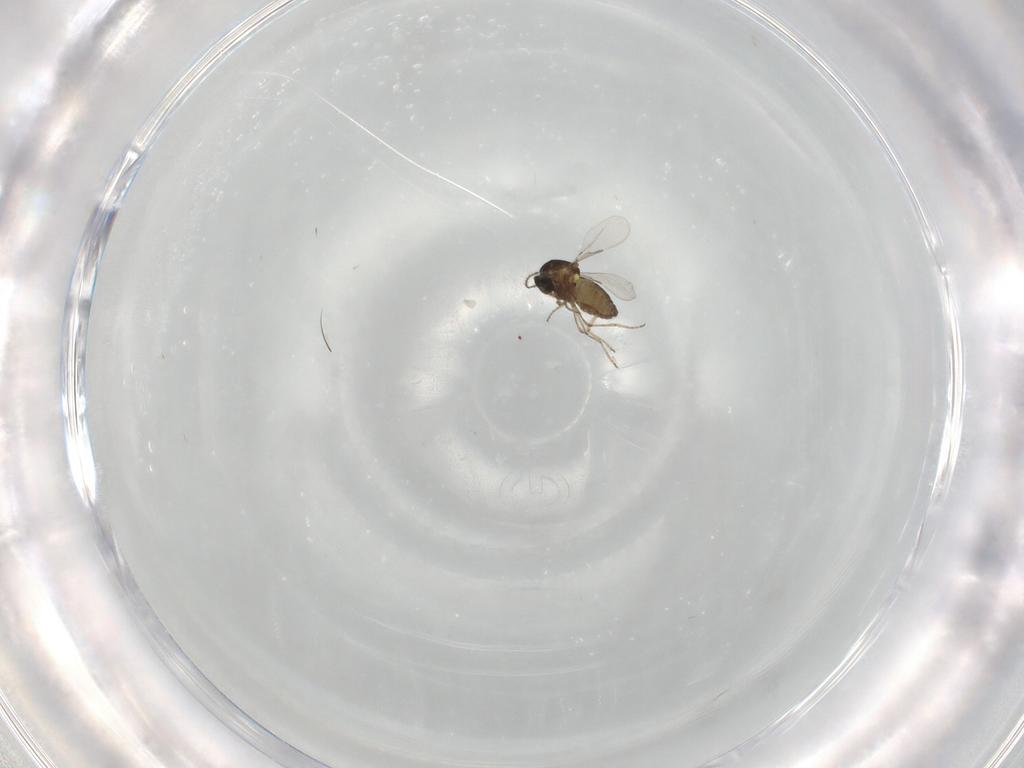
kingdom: Animalia
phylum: Arthropoda
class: Insecta
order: Diptera
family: Ceratopogonidae
